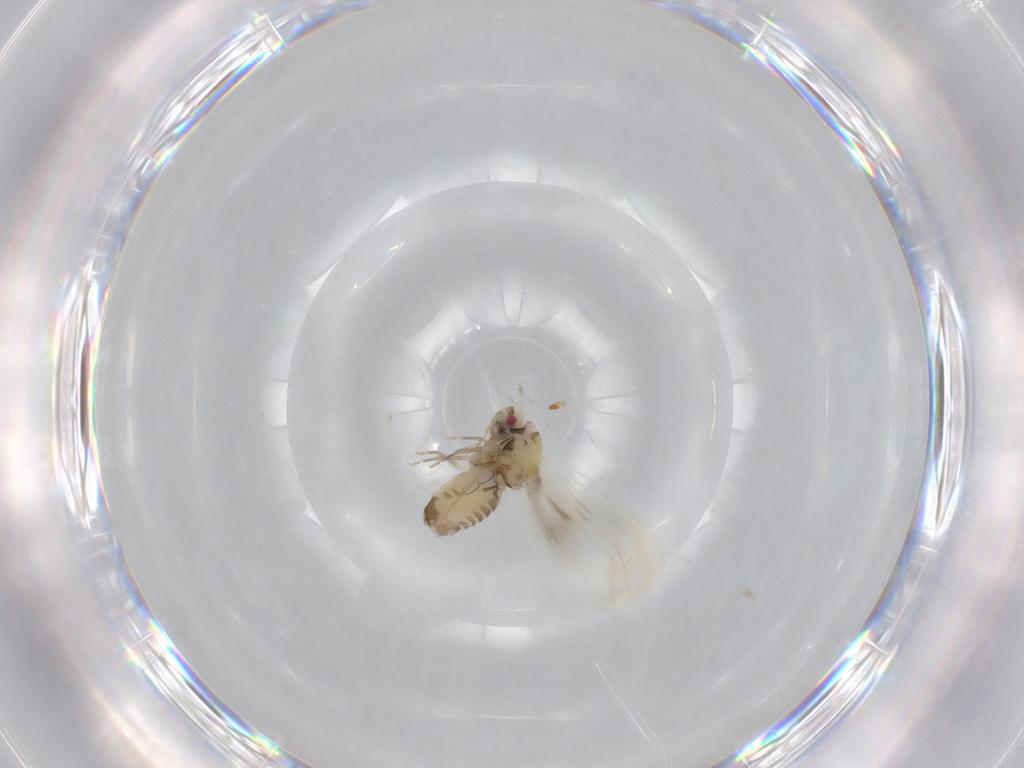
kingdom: Animalia
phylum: Arthropoda
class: Insecta
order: Hemiptera
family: Aleyrodidae
